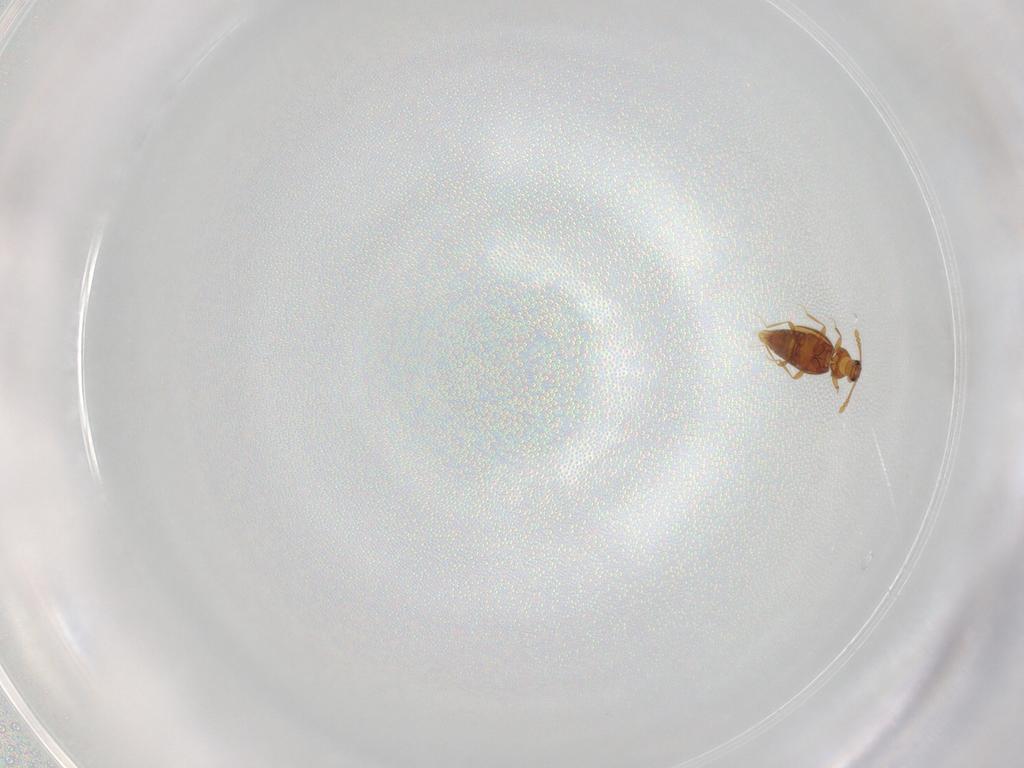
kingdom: Animalia
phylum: Arthropoda
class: Insecta
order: Coleoptera
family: Staphylinidae
